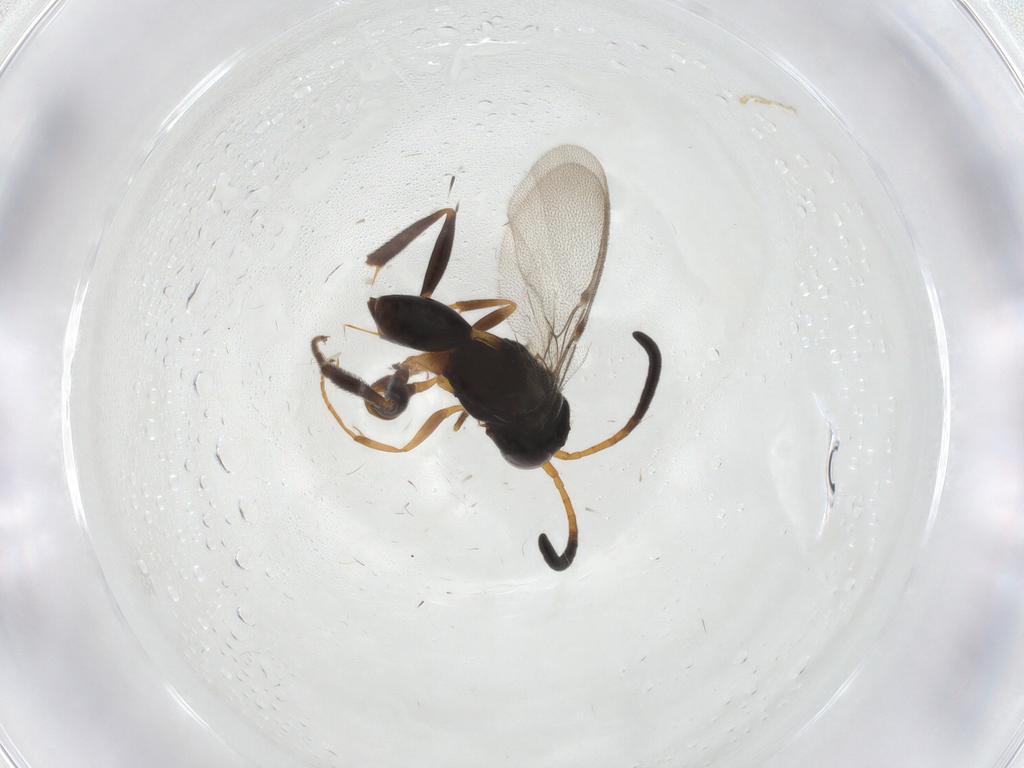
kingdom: Animalia
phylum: Arthropoda
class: Insecta
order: Hymenoptera
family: Evaniidae
